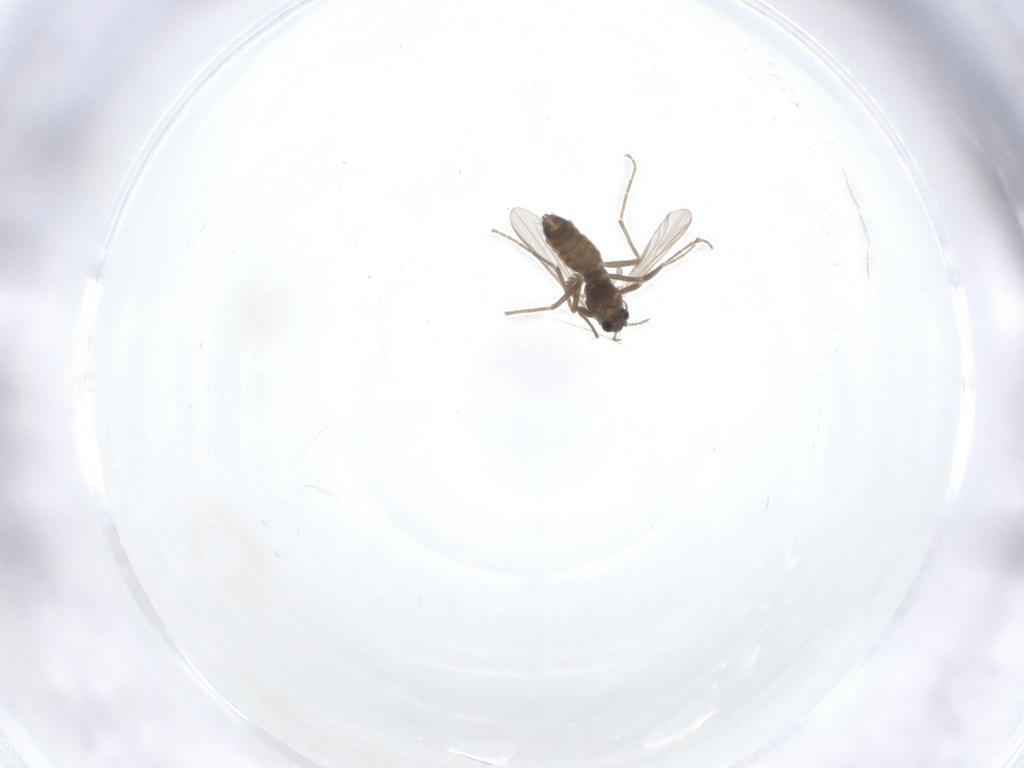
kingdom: Animalia
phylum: Arthropoda
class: Insecta
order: Diptera
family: Chironomidae
